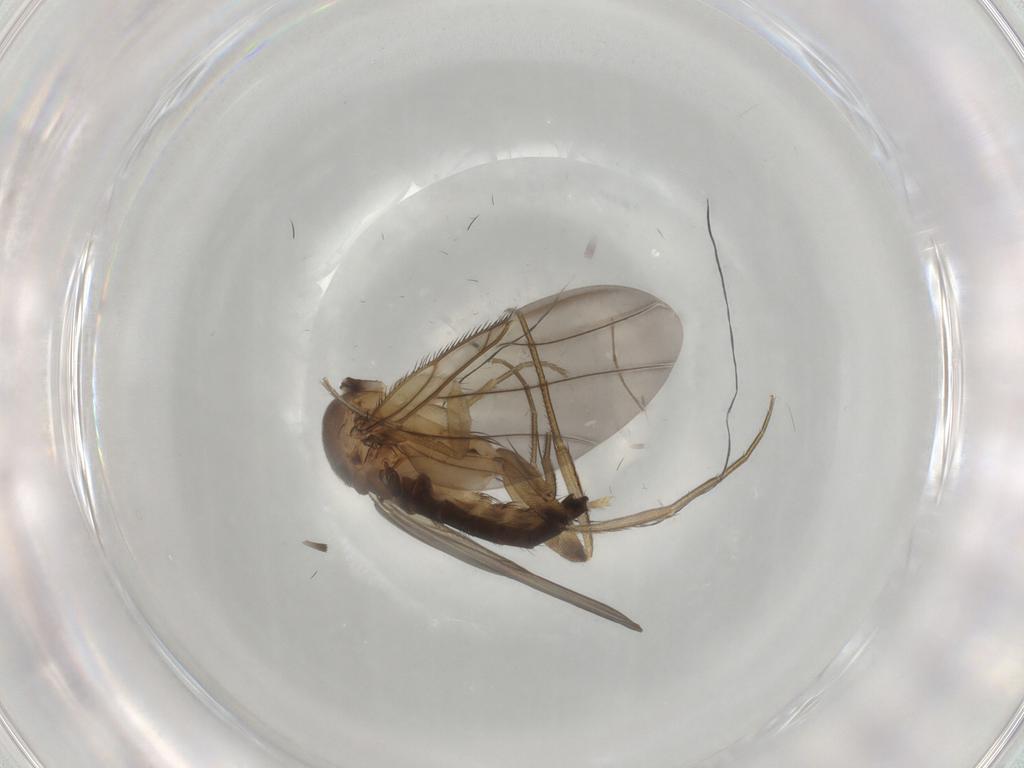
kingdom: Animalia
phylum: Arthropoda
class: Insecta
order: Diptera
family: Phoridae
